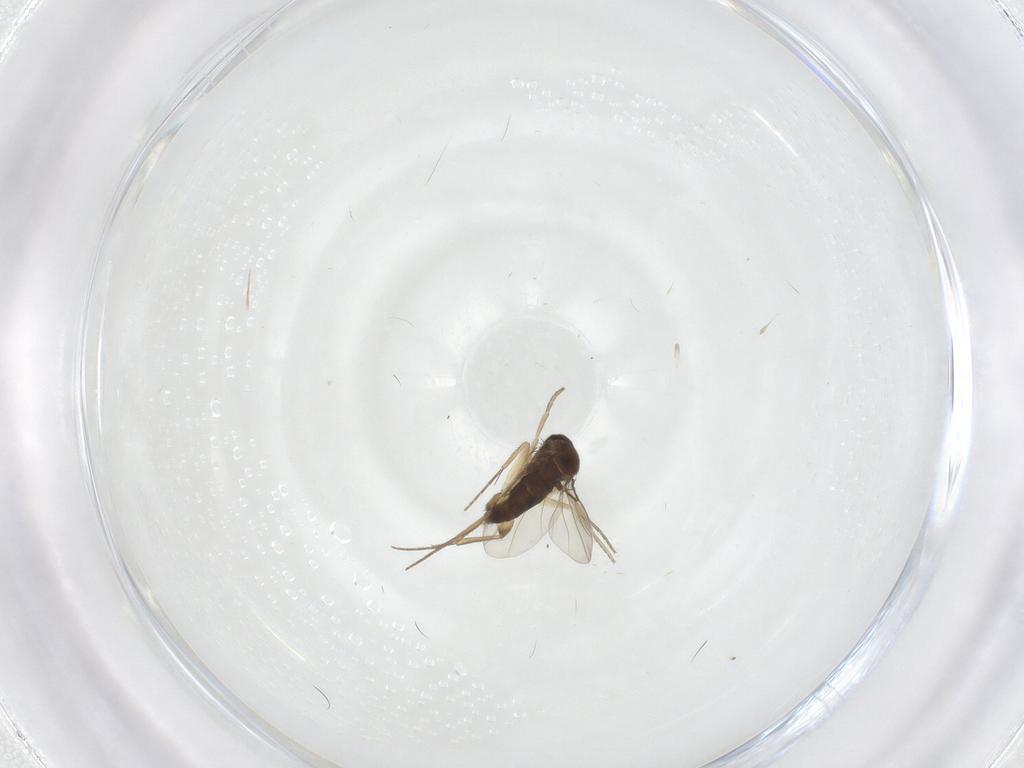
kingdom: Animalia
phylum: Arthropoda
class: Insecta
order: Diptera
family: Phoridae
